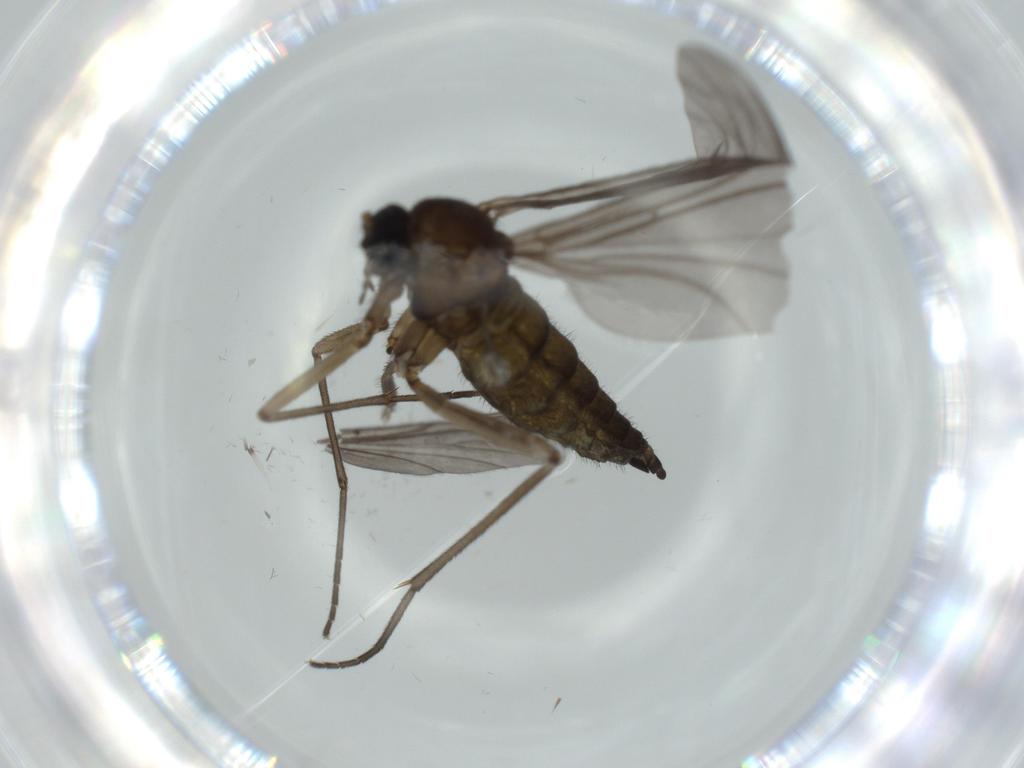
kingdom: Animalia
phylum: Arthropoda
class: Insecta
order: Diptera
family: Sciaridae
